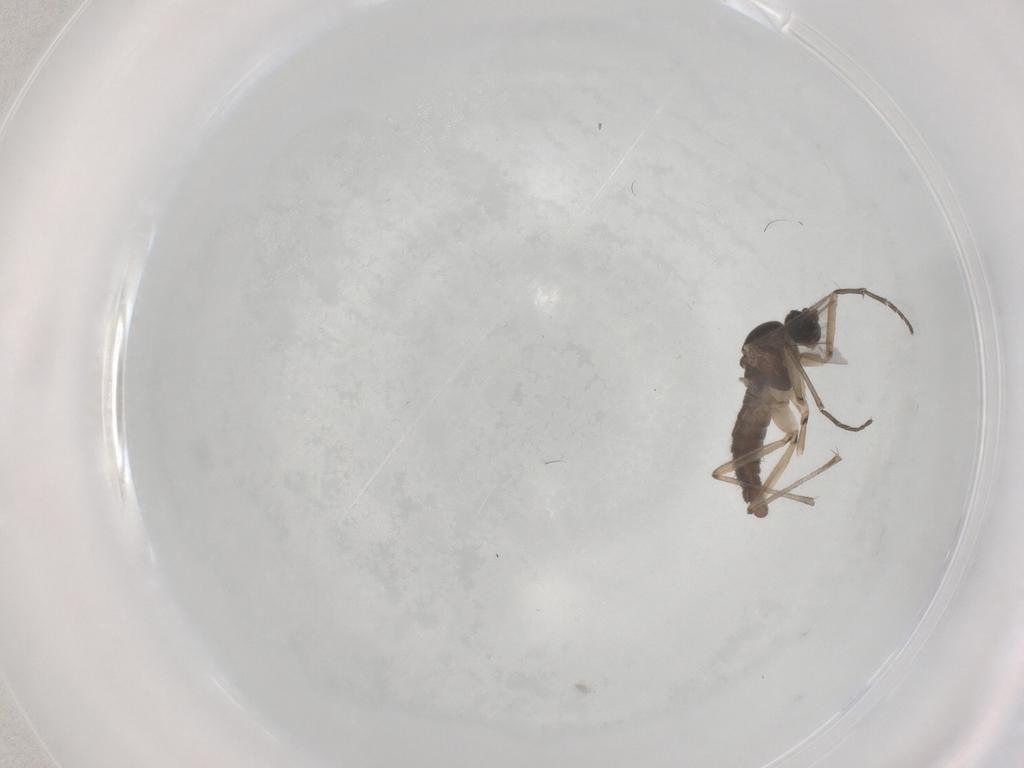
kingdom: Animalia
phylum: Arthropoda
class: Insecta
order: Diptera
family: Sciaridae
